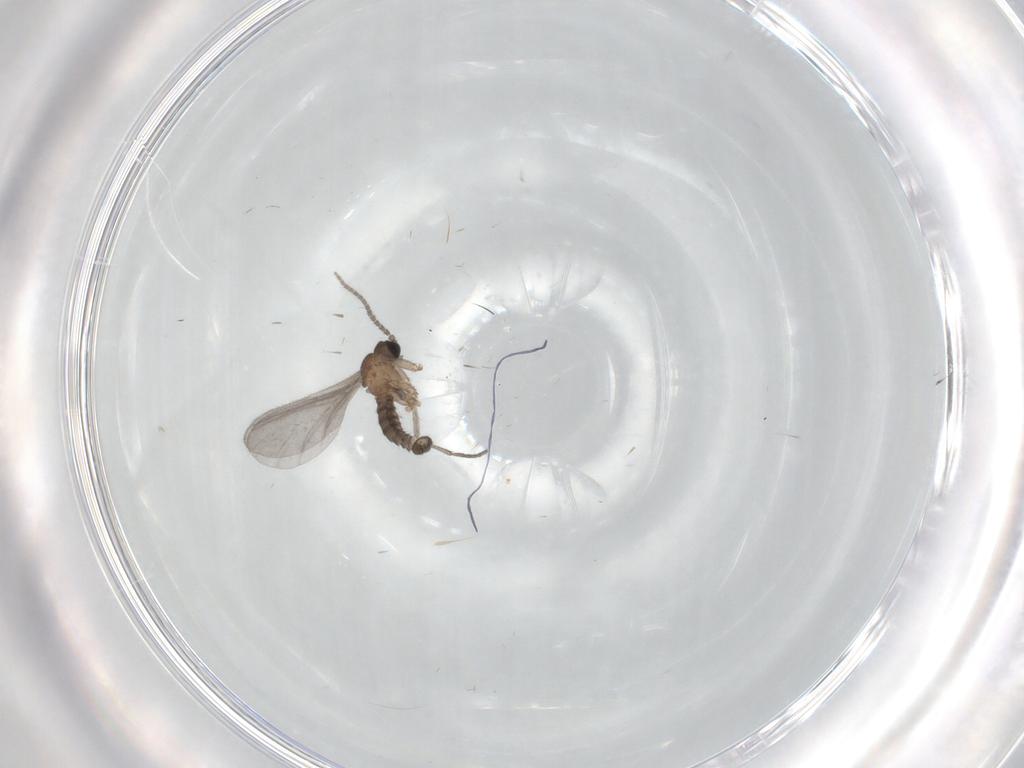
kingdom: Animalia
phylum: Arthropoda
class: Insecta
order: Diptera
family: Sciaridae
